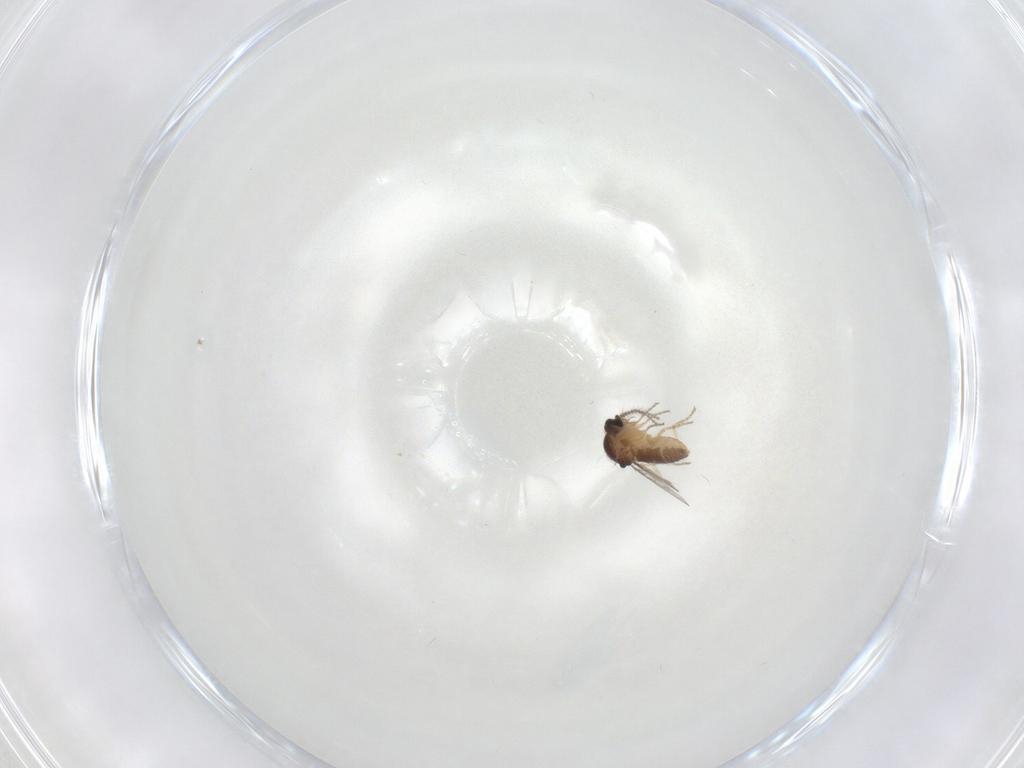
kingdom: Animalia
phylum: Arthropoda
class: Insecta
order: Diptera
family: Ceratopogonidae
